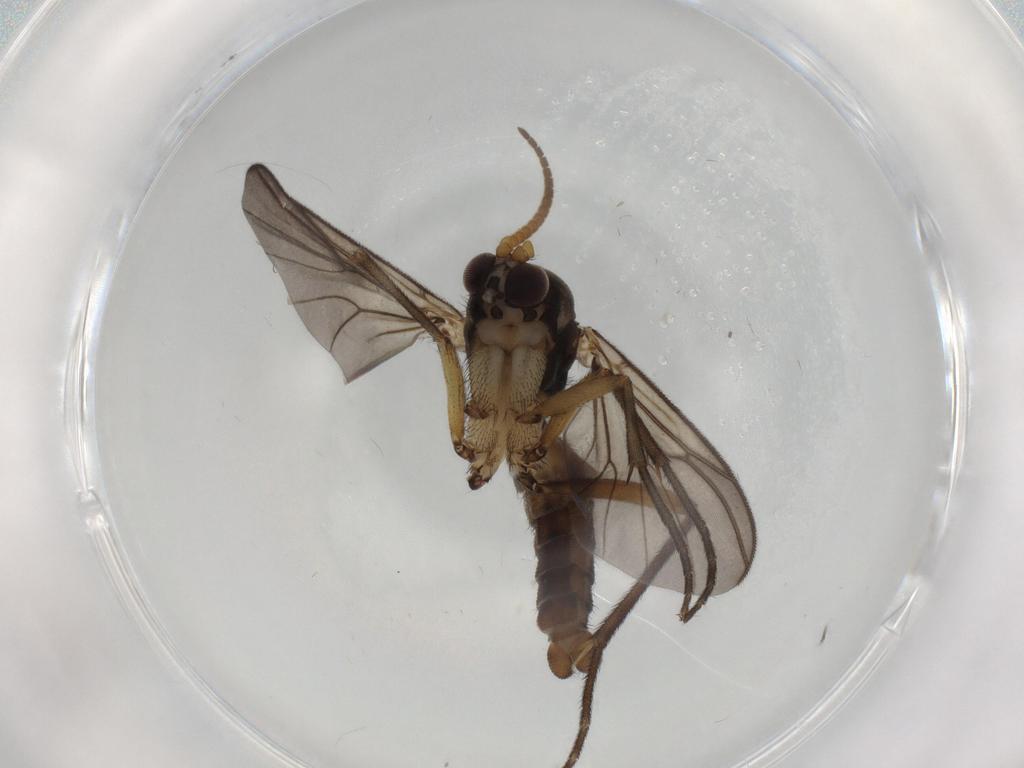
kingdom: Animalia
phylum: Arthropoda
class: Insecta
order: Diptera
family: Mycetophilidae
